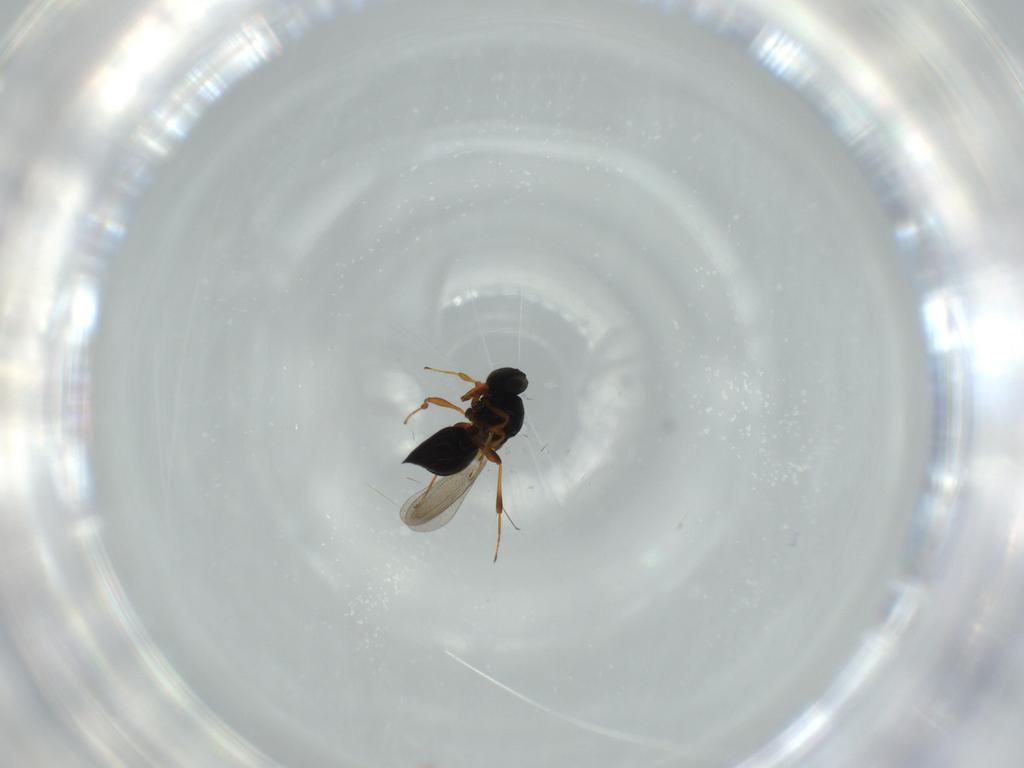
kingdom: Animalia
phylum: Arthropoda
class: Insecta
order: Hymenoptera
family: Platygastridae
